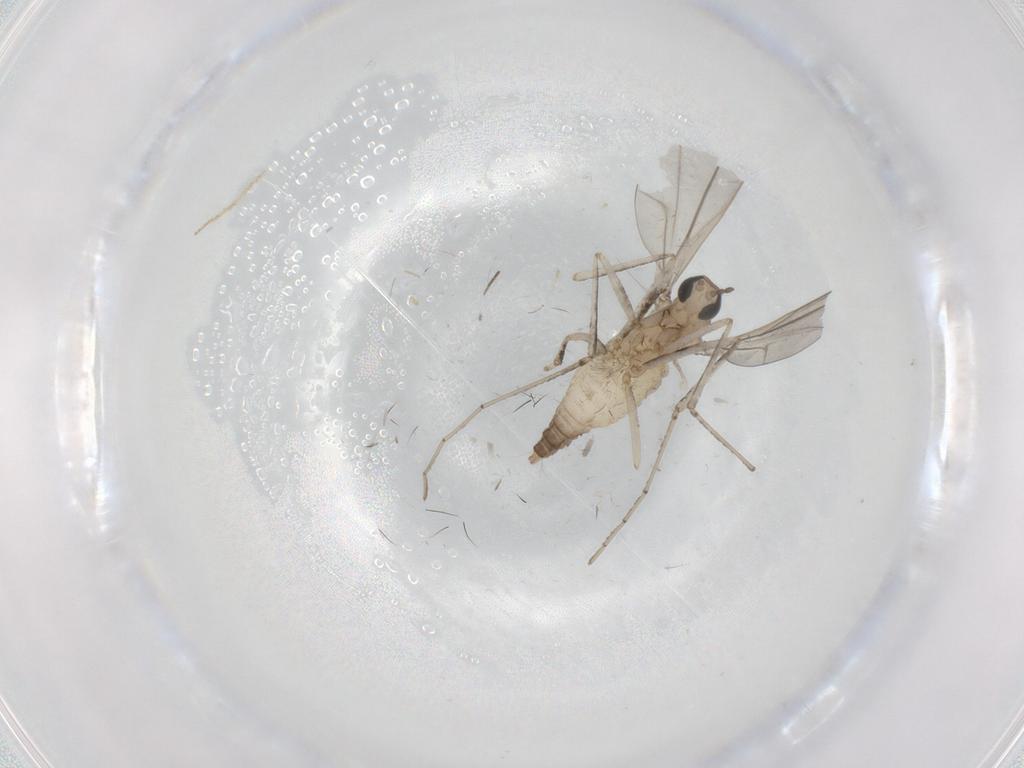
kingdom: Animalia
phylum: Arthropoda
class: Insecta
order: Diptera
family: Cecidomyiidae
